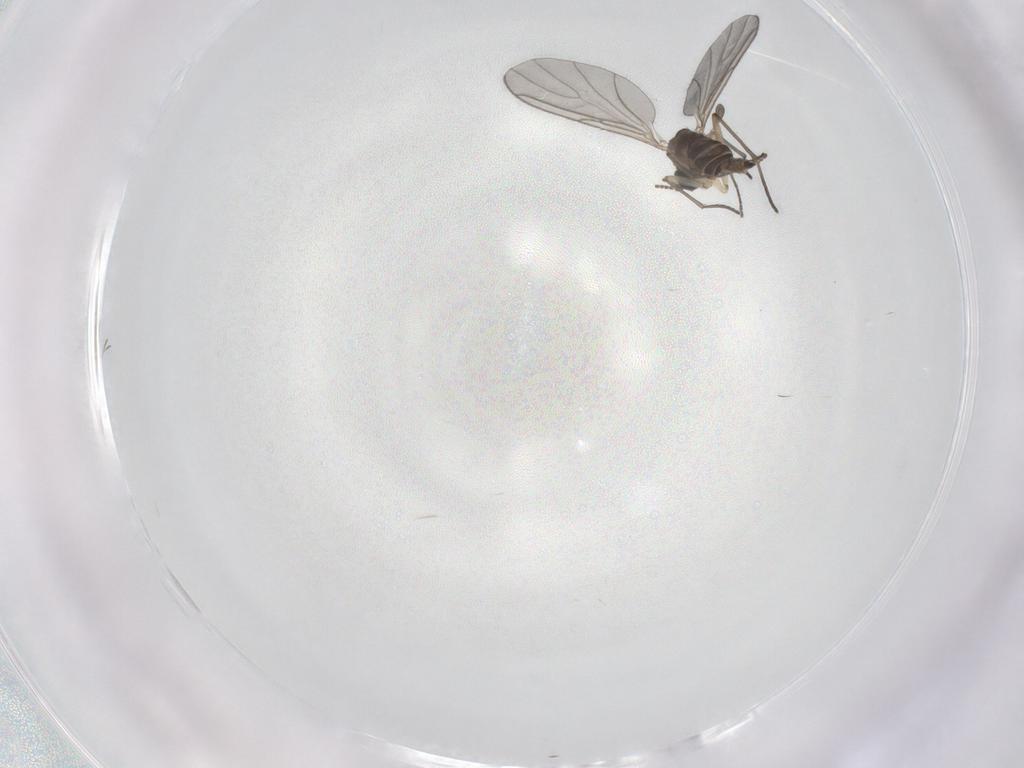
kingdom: Animalia
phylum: Arthropoda
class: Insecta
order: Diptera
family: Sciaridae
